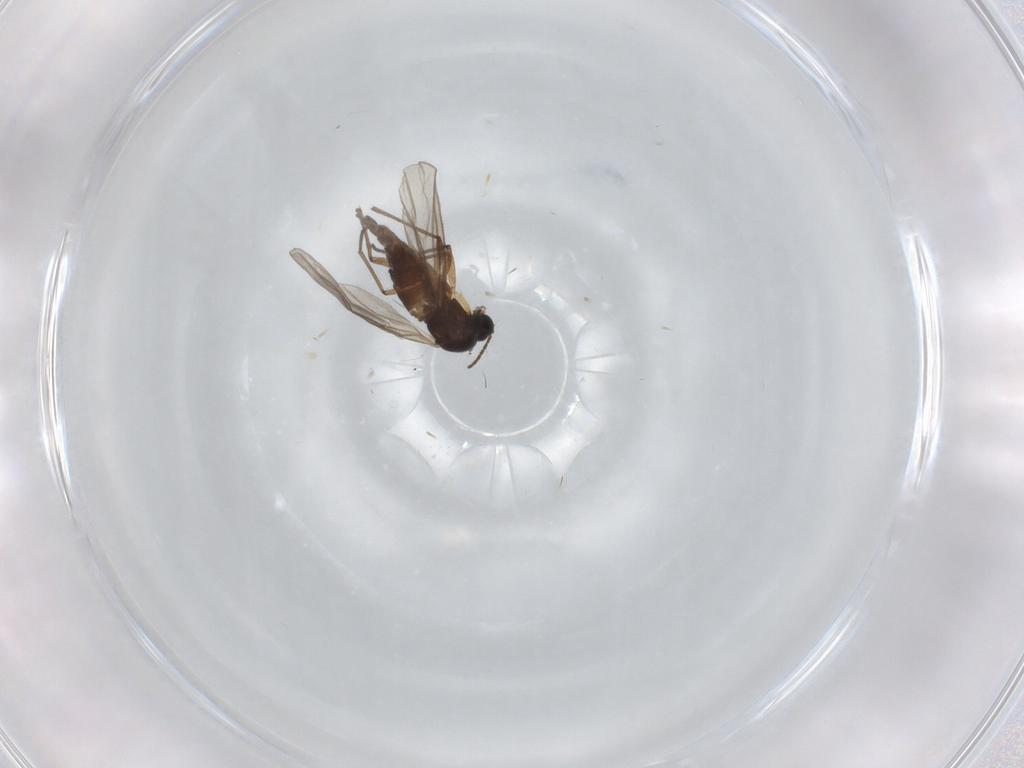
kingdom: Animalia
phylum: Arthropoda
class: Insecta
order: Diptera
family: Sciaridae
